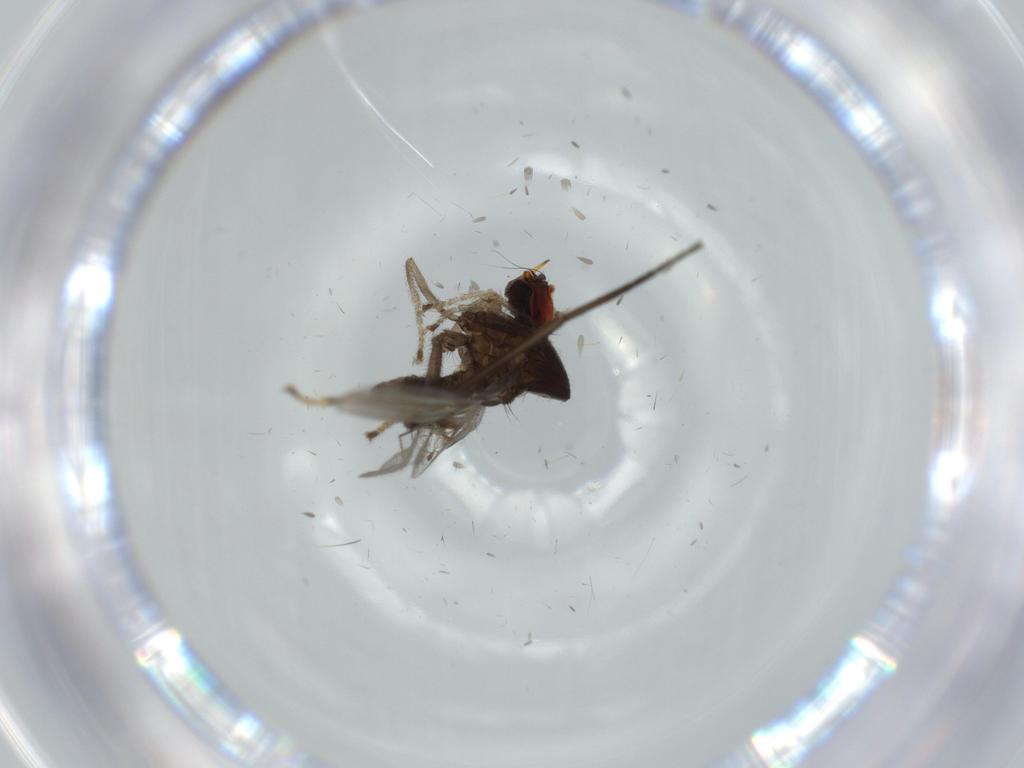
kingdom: Animalia
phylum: Arthropoda
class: Insecta
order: Diptera
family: Hybotidae
